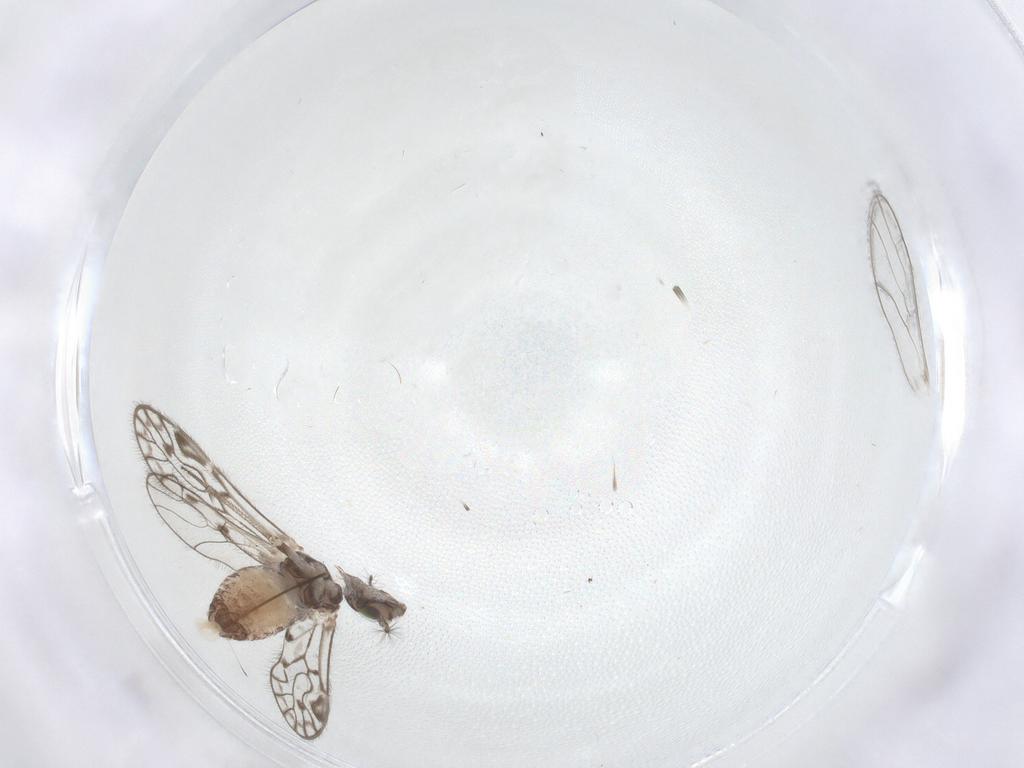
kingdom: Animalia
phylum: Arthropoda
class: Insecta
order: Psocodea
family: Psocidae
